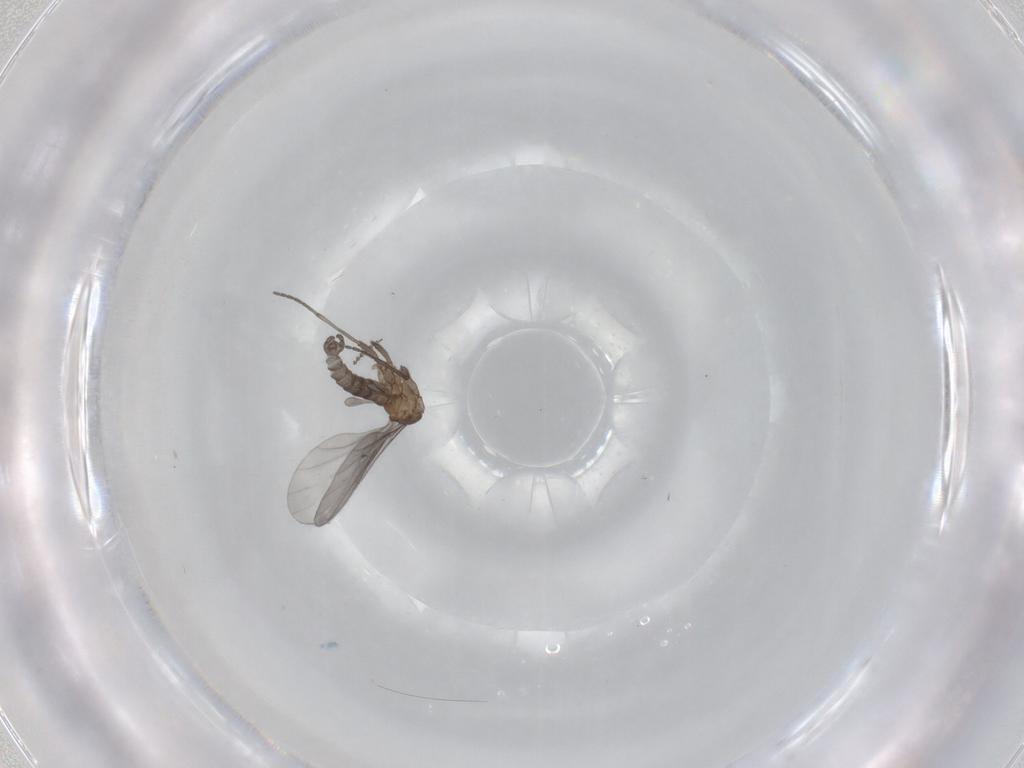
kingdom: Animalia
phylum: Arthropoda
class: Insecta
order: Diptera
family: Sciaridae
